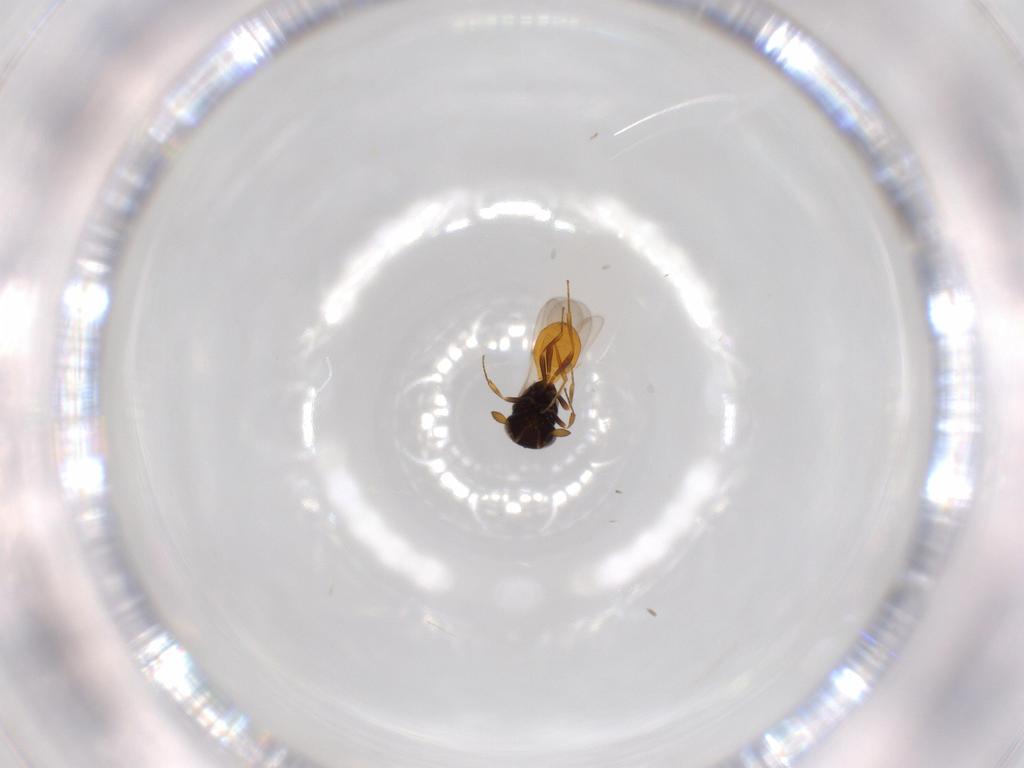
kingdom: Animalia
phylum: Arthropoda
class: Insecta
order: Hymenoptera
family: Scelionidae
